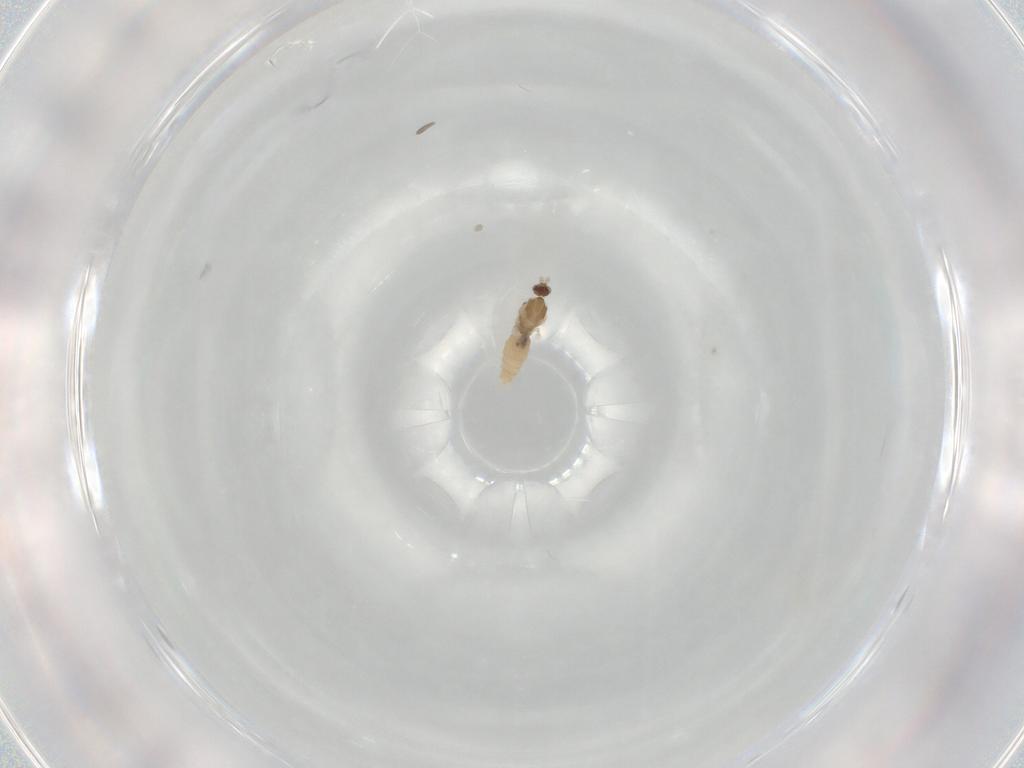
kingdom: Animalia
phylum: Arthropoda
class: Insecta
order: Diptera
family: Cecidomyiidae
